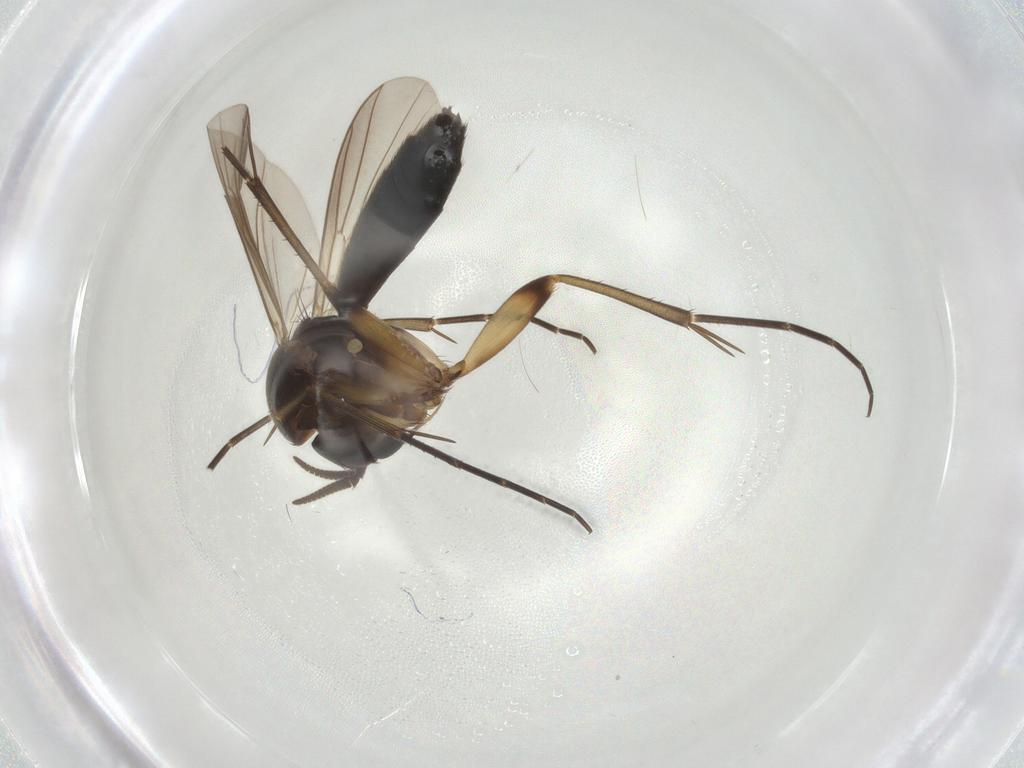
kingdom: Animalia
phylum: Arthropoda
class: Insecta
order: Diptera
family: Mycetophilidae
